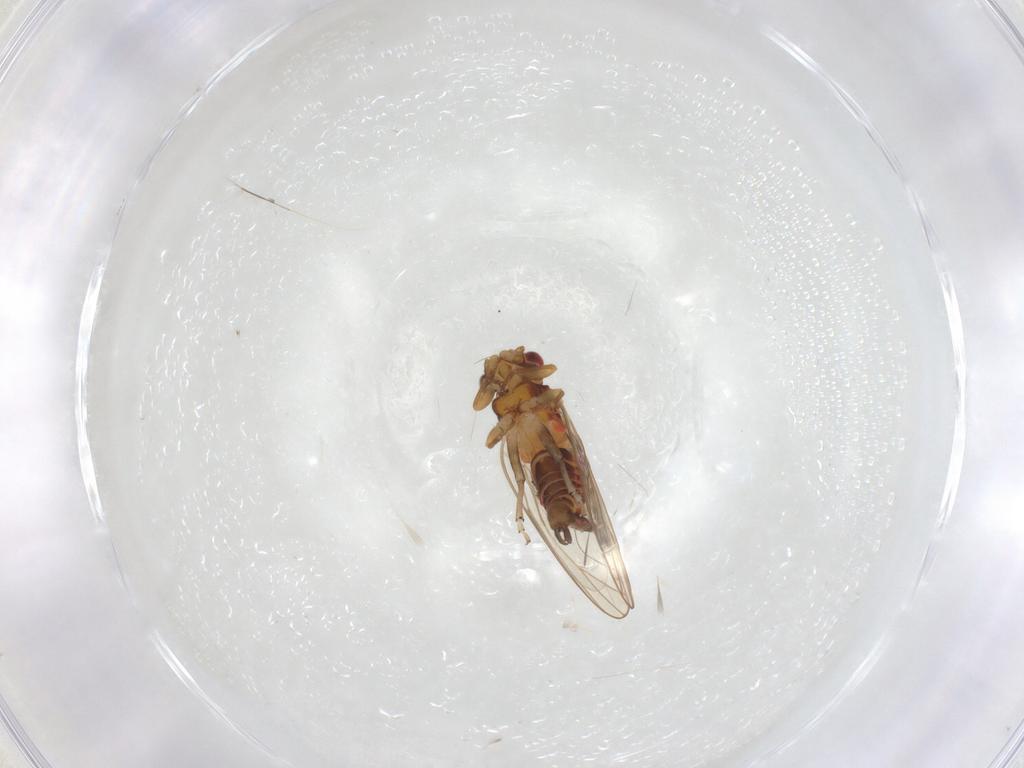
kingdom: Animalia
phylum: Arthropoda
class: Insecta
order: Hemiptera
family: Psyllidae
